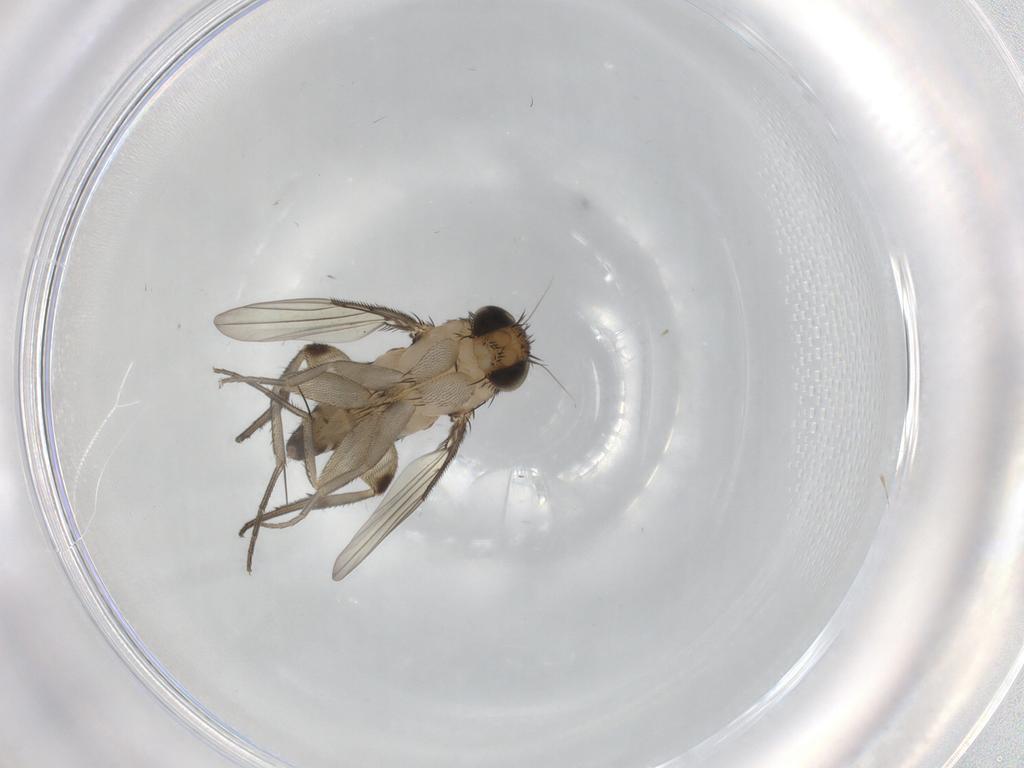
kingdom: Animalia
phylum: Arthropoda
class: Insecta
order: Diptera
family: Phoridae
